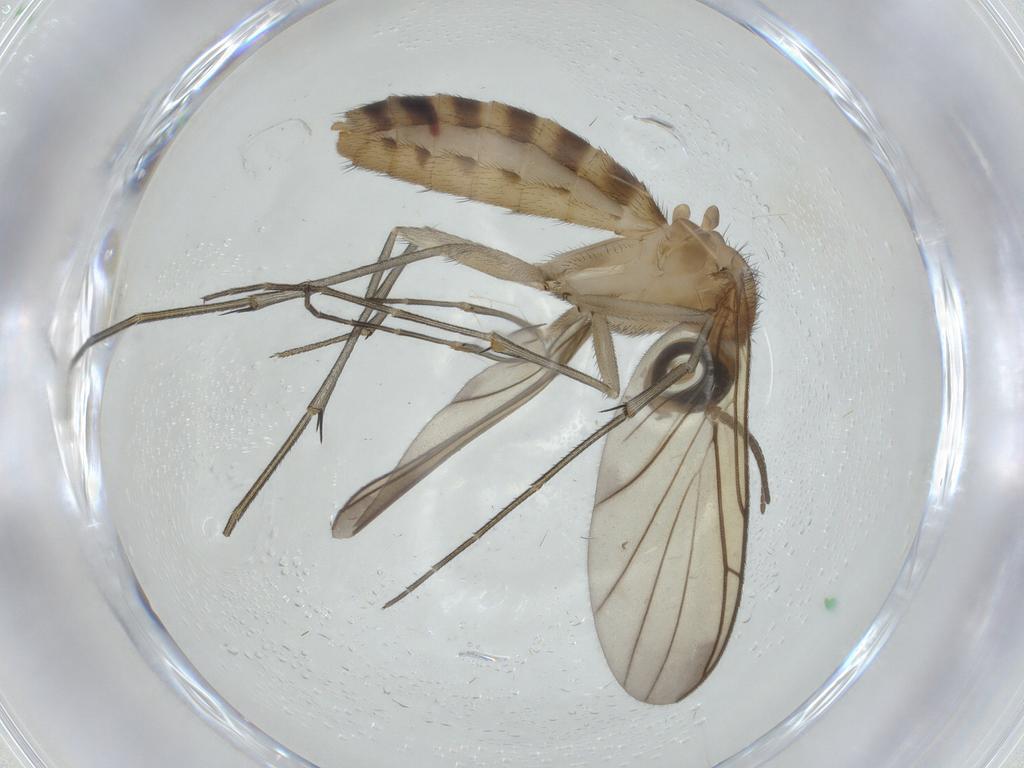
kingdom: Animalia
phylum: Arthropoda
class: Insecta
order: Diptera
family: Keroplatidae
